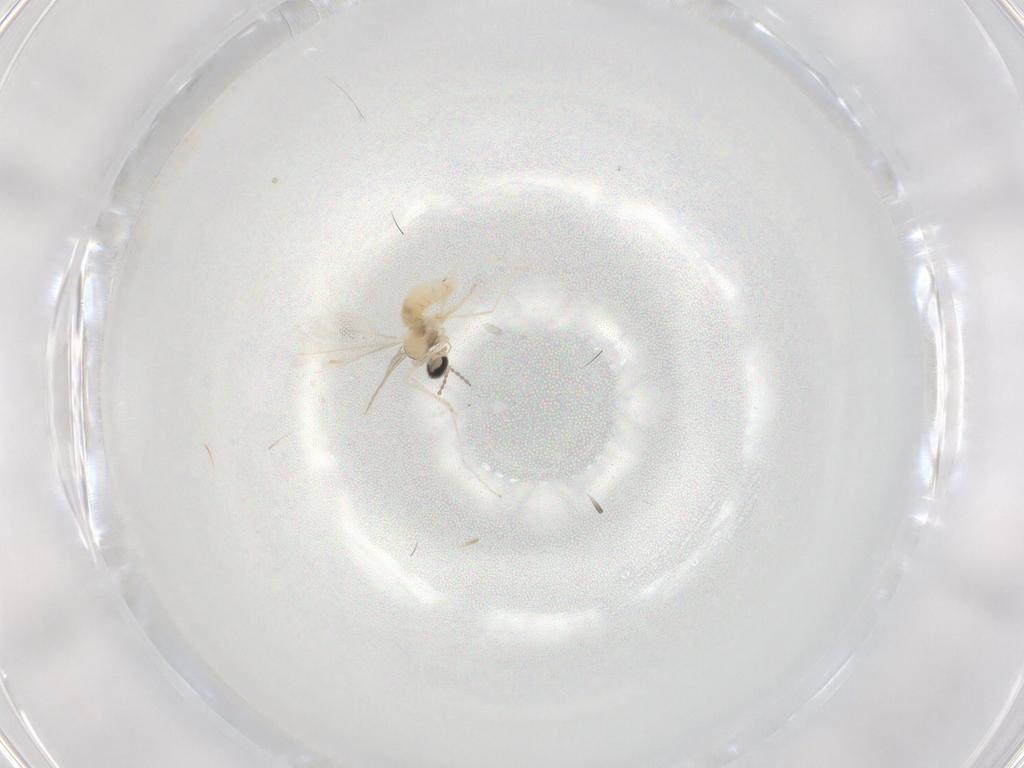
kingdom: Animalia
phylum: Arthropoda
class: Insecta
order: Diptera
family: Cecidomyiidae
